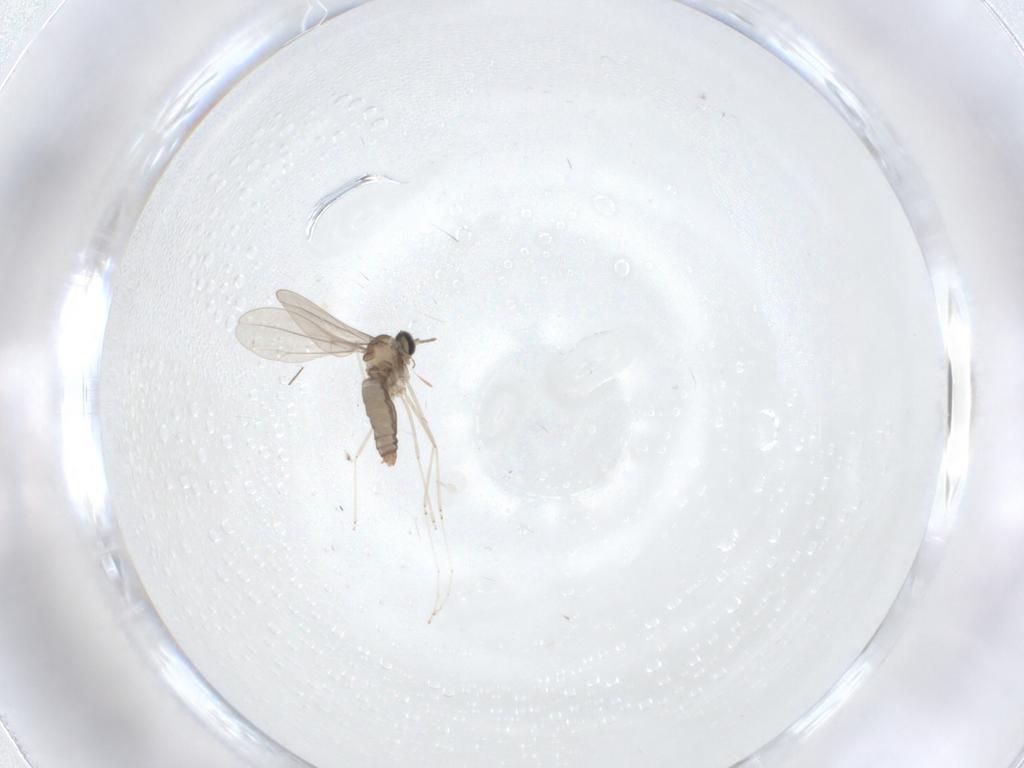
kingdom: Animalia
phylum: Arthropoda
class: Insecta
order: Diptera
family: Cecidomyiidae
